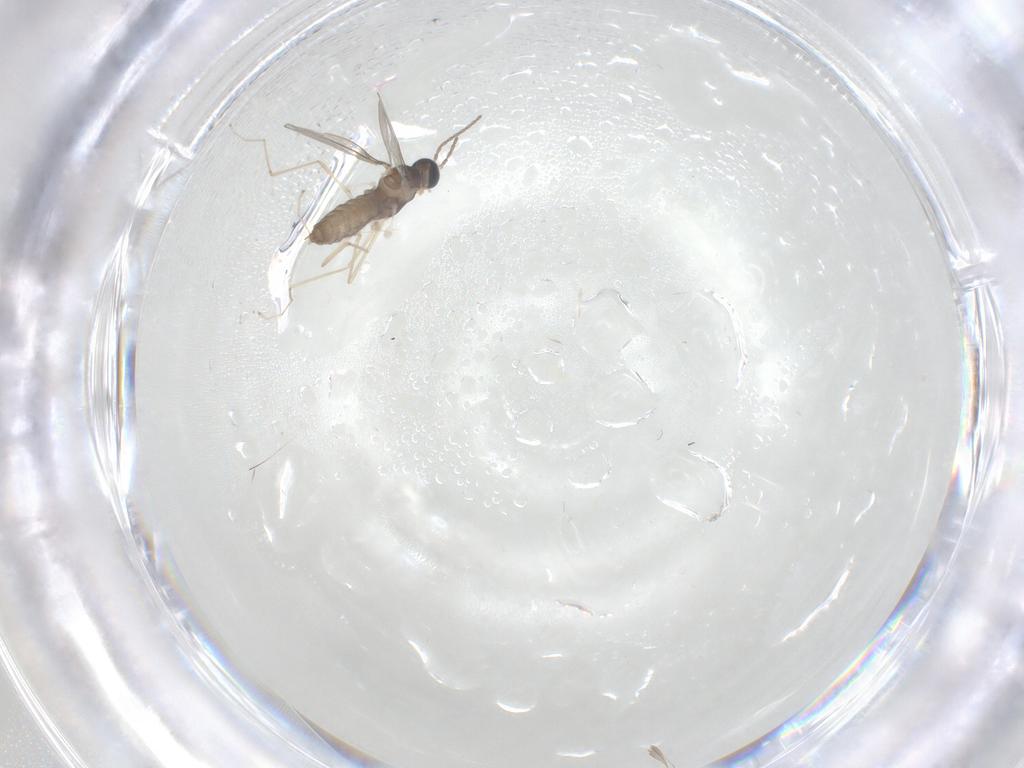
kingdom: Animalia
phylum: Arthropoda
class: Insecta
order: Diptera
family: Cecidomyiidae
